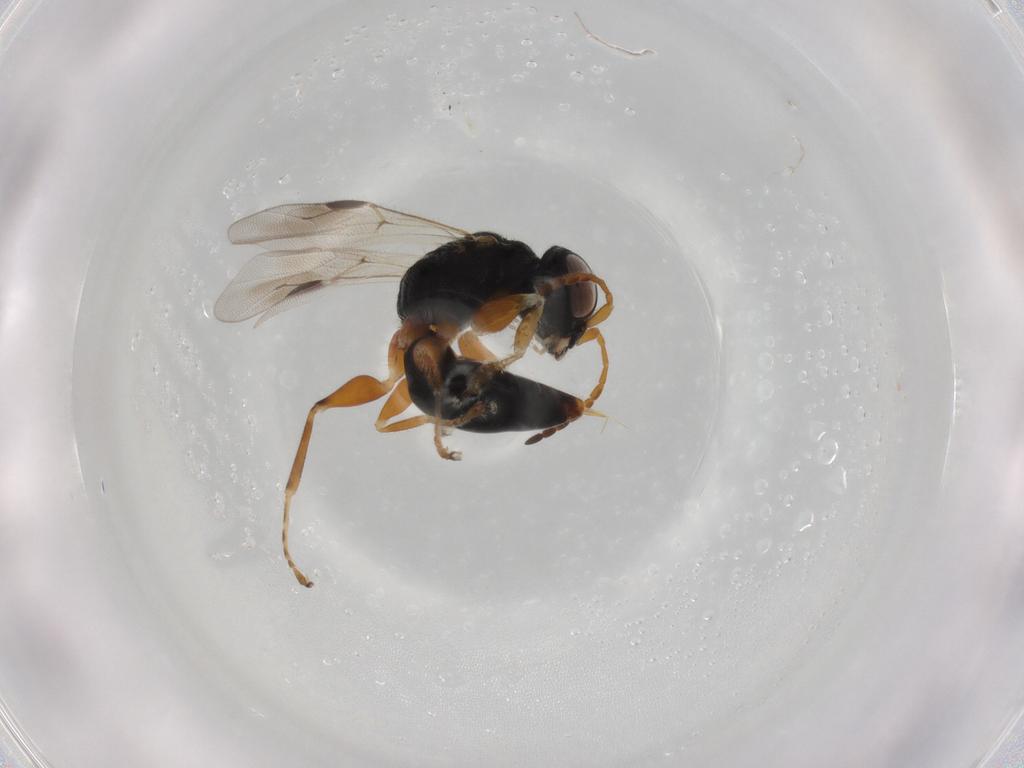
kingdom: Animalia
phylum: Arthropoda
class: Insecta
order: Hymenoptera
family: Dryinidae
